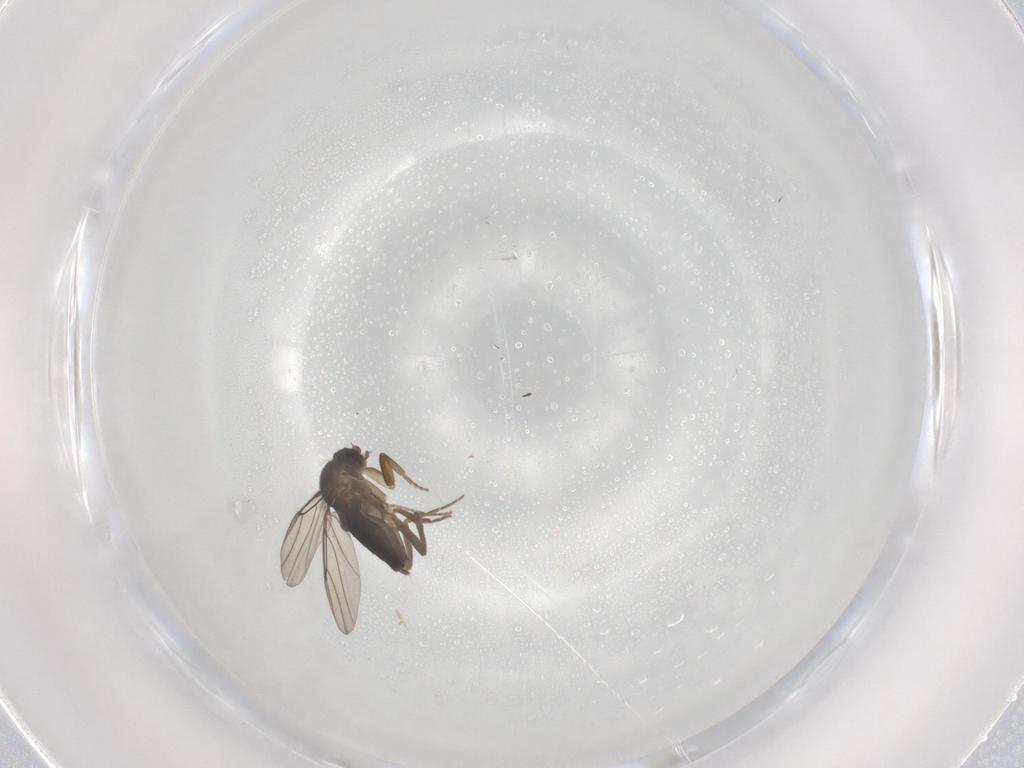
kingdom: Animalia
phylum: Arthropoda
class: Insecta
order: Diptera
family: Phoridae
